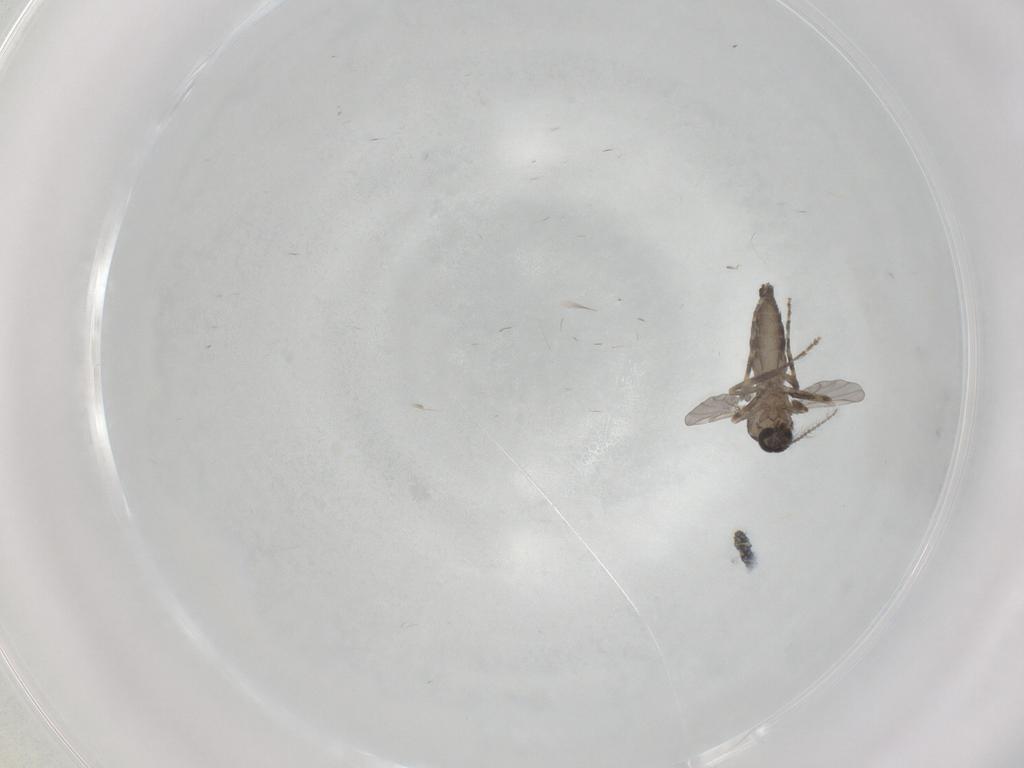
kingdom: Animalia
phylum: Arthropoda
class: Insecta
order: Diptera
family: Ceratopogonidae
